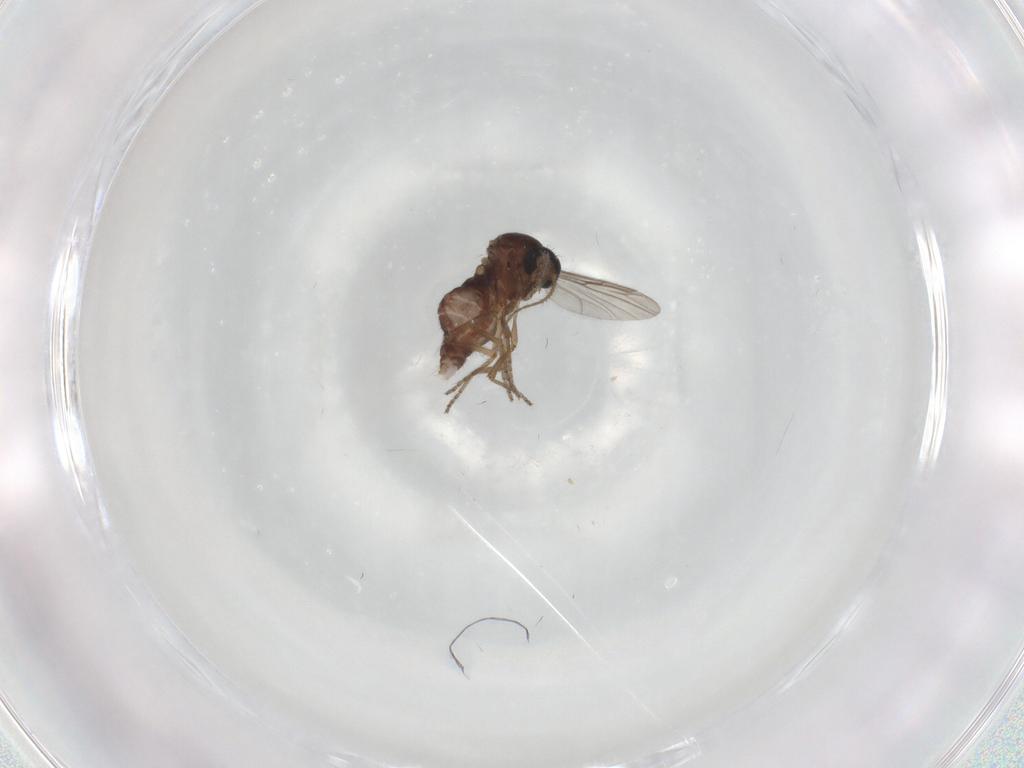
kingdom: Animalia
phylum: Arthropoda
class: Insecta
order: Diptera
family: Ceratopogonidae
